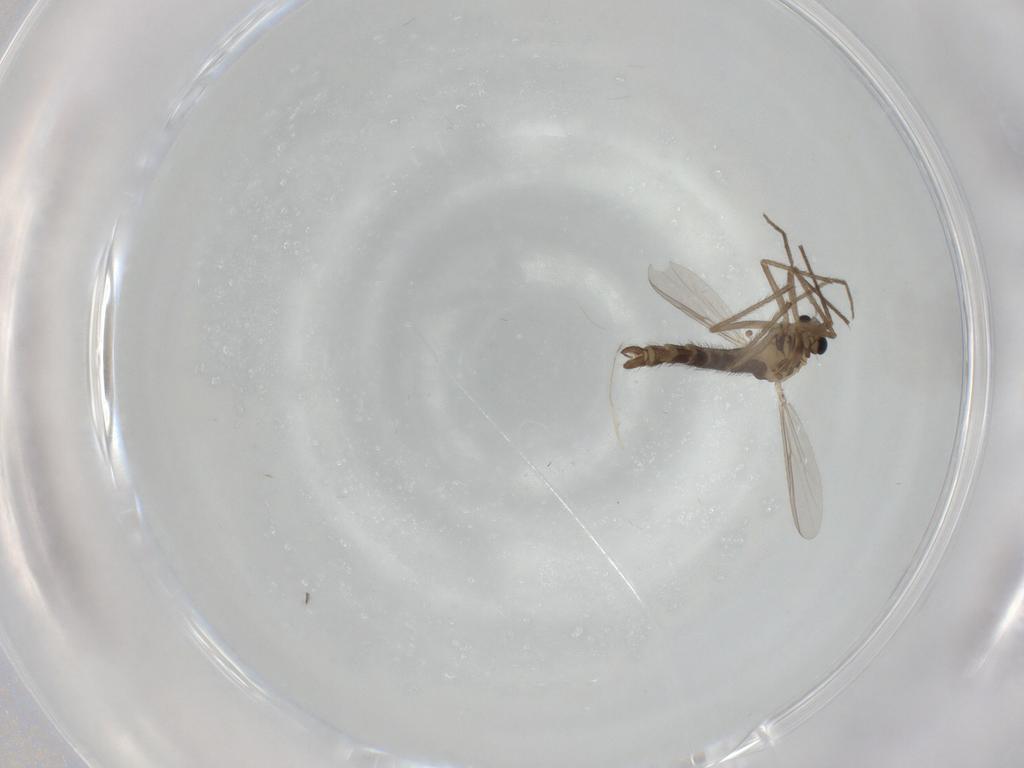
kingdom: Animalia
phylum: Arthropoda
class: Insecta
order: Diptera
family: Chironomidae
